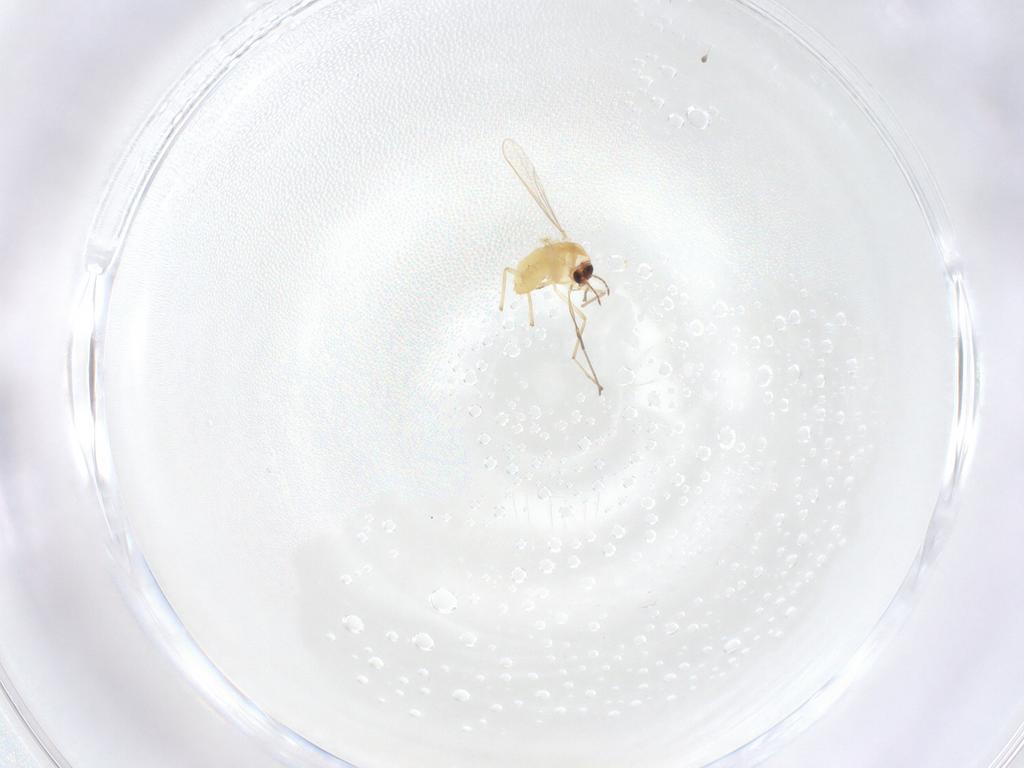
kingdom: Animalia
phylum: Arthropoda
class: Insecta
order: Diptera
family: Chironomidae
